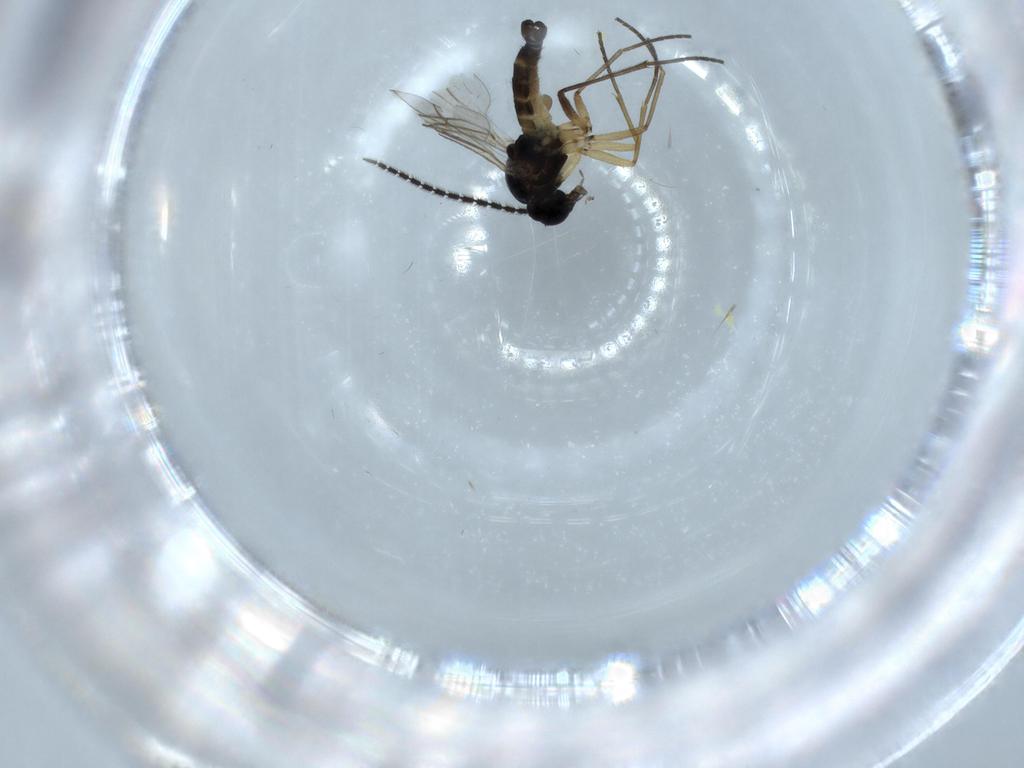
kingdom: Animalia
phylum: Arthropoda
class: Insecta
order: Diptera
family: Sciaridae
